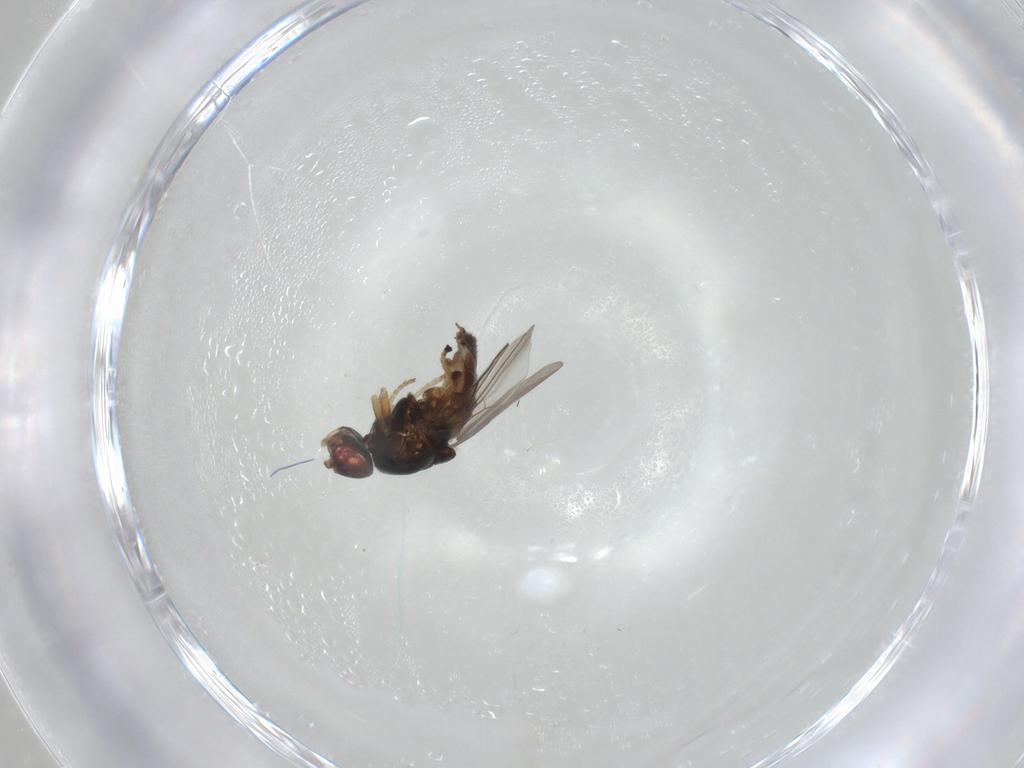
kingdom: Animalia
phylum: Arthropoda
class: Insecta
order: Diptera
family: Chloropidae
